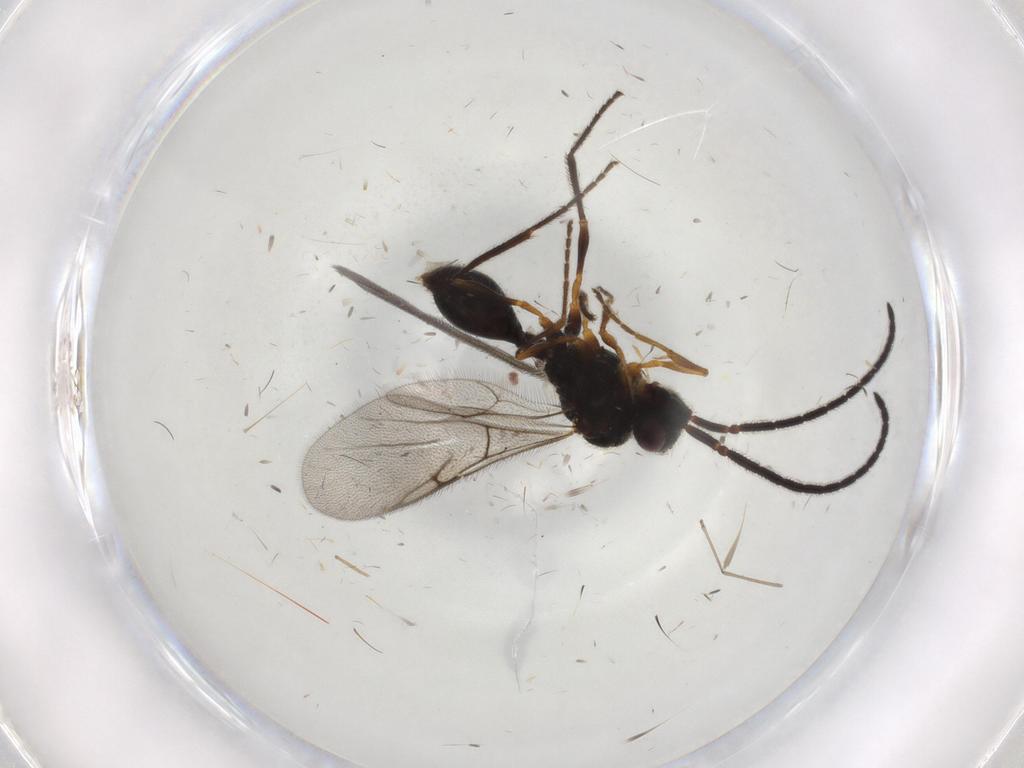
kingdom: Animalia
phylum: Arthropoda
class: Insecta
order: Hymenoptera
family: Diapriidae
